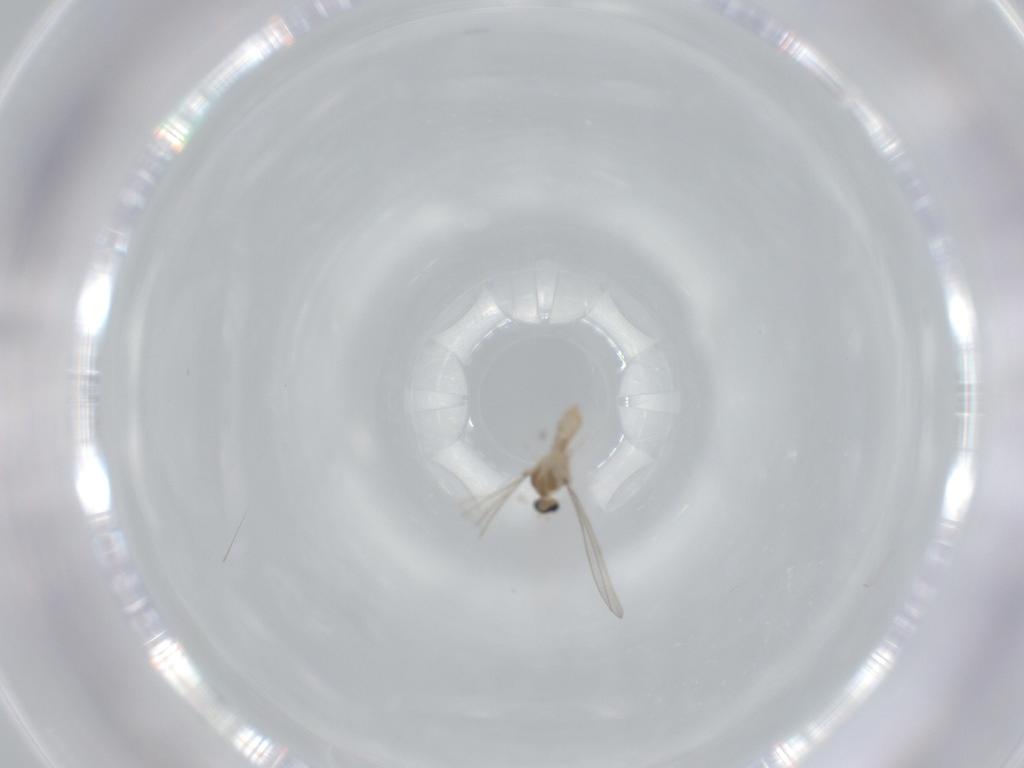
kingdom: Animalia
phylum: Arthropoda
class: Insecta
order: Diptera
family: Cecidomyiidae
